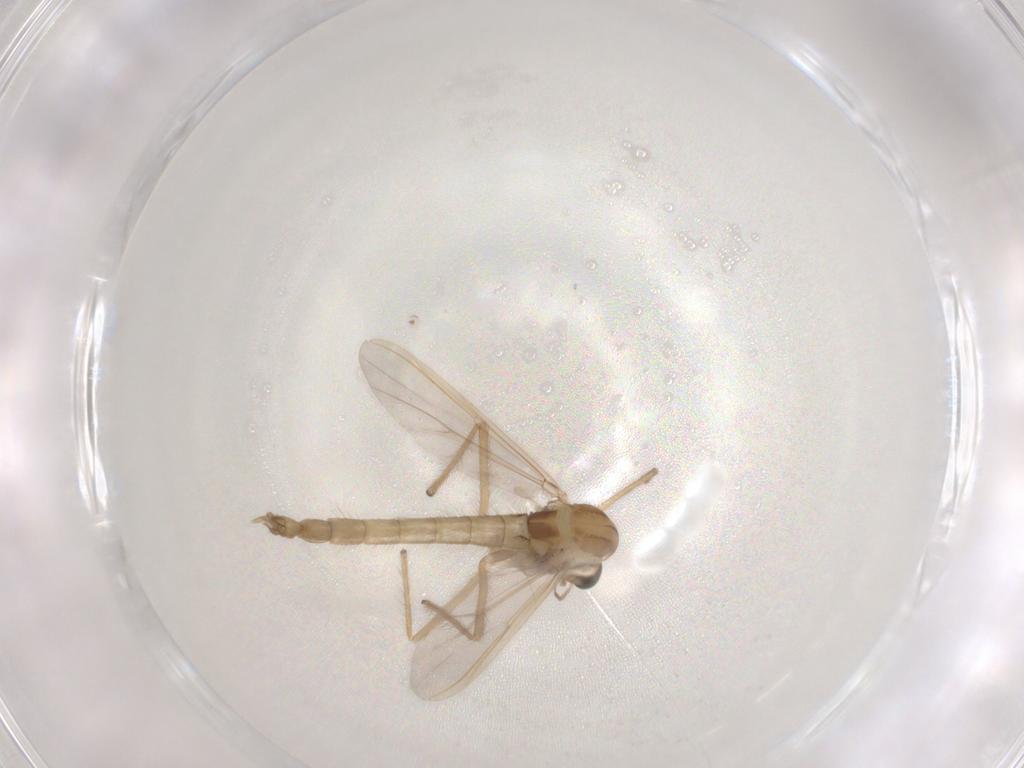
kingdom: Animalia
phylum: Arthropoda
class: Insecta
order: Diptera
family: Chironomidae
